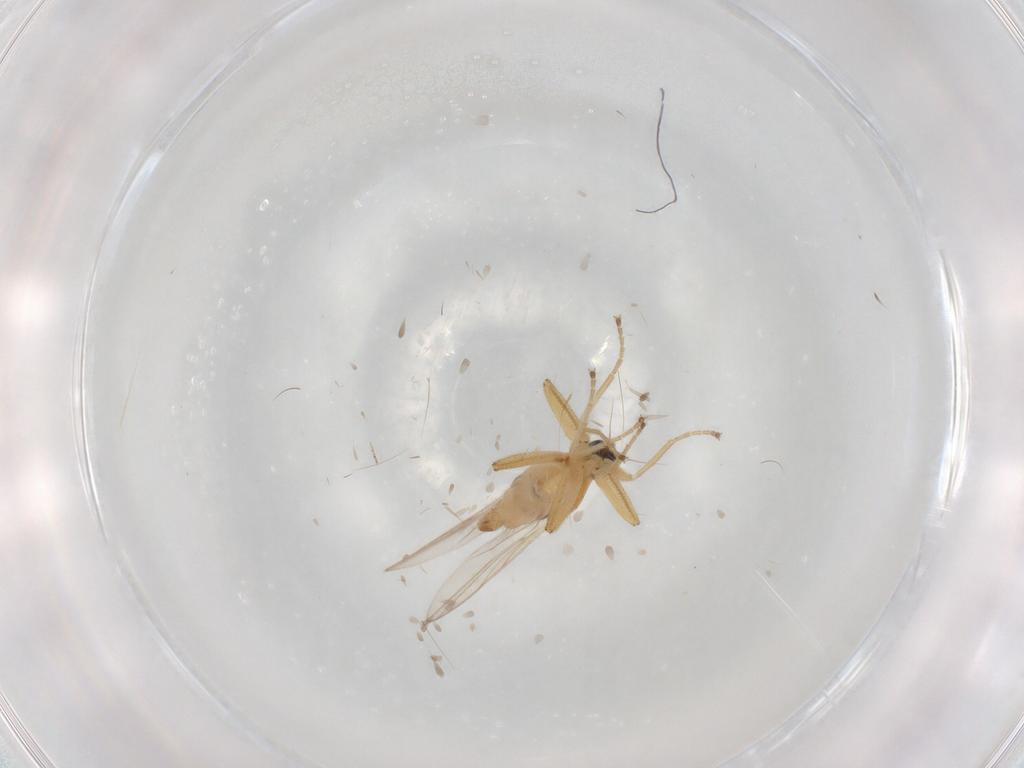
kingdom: Animalia
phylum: Arthropoda
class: Insecta
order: Diptera
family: Hybotidae
